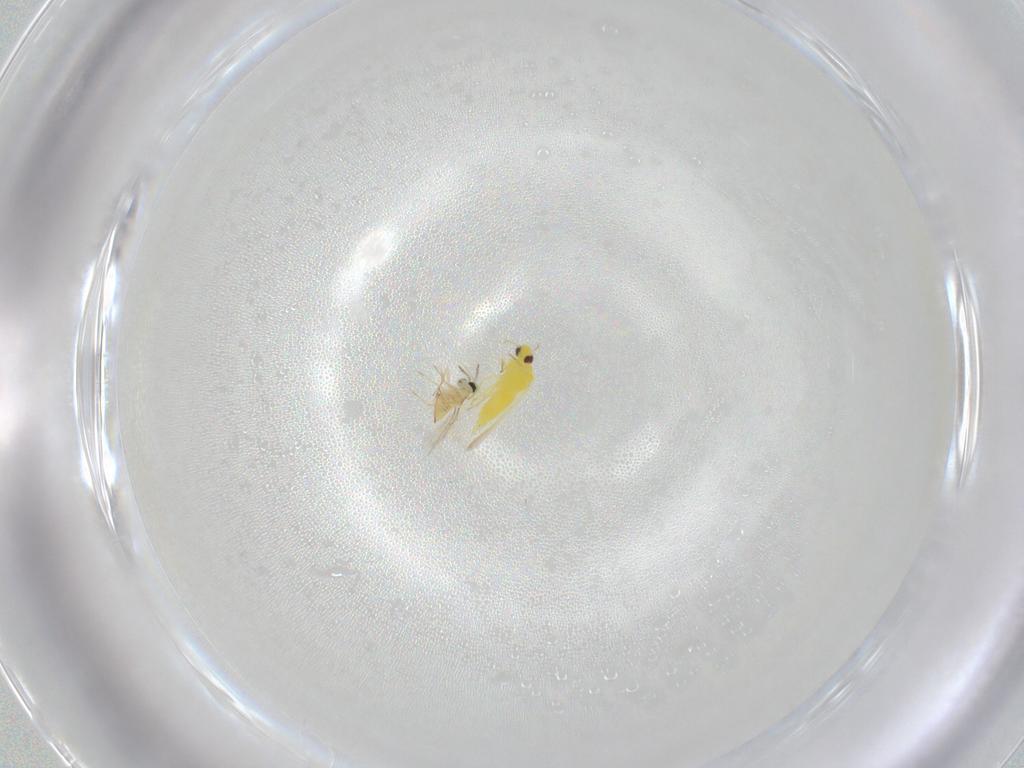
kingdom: Animalia
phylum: Arthropoda
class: Insecta
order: Hemiptera
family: Aleyrodidae
